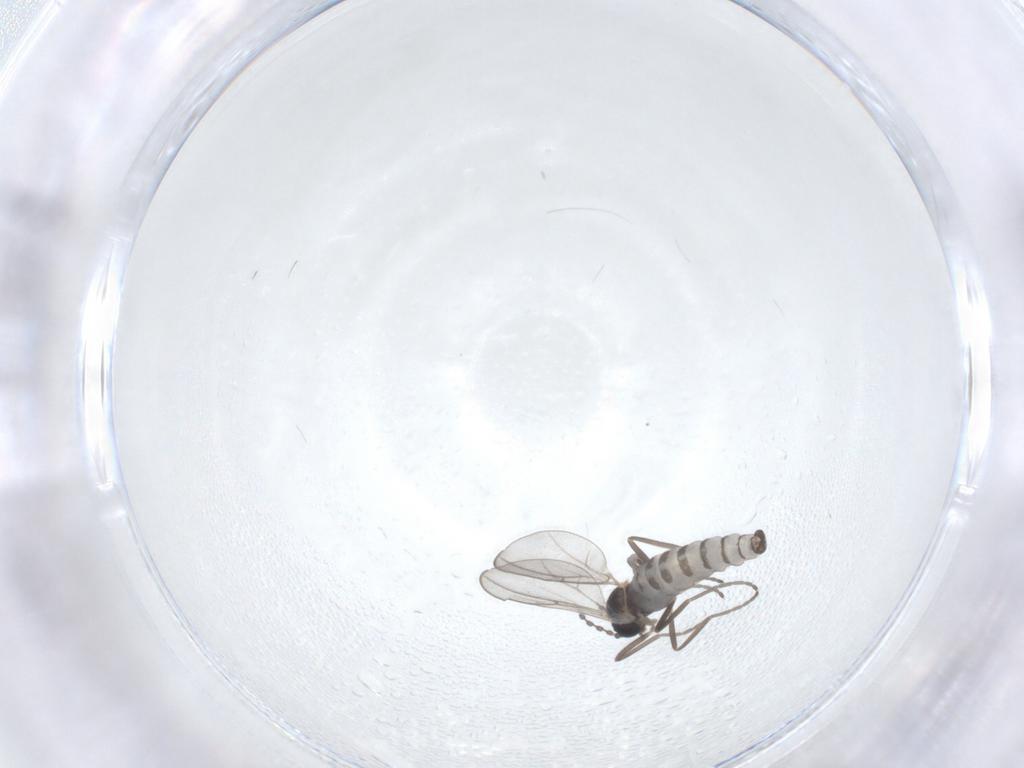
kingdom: Animalia
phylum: Arthropoda
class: Insecta
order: Diptera
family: Cecidomyiidae
